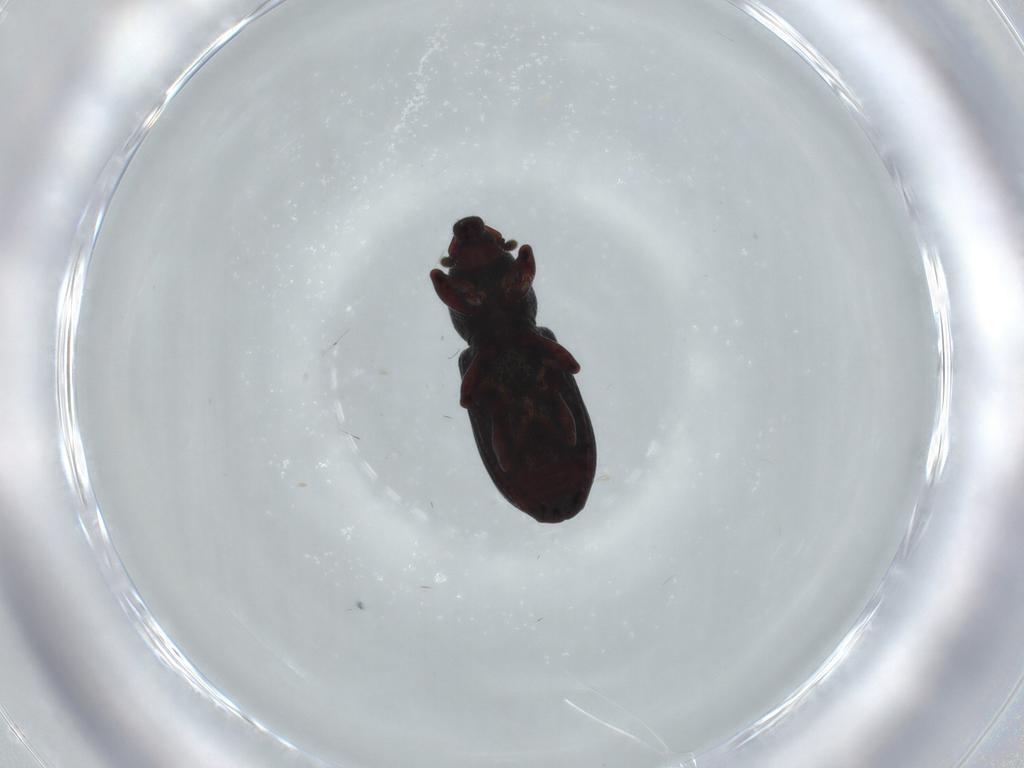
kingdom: Animalia
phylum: Arthropoda
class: Insecta
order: Coleoptera
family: Curculionidae
